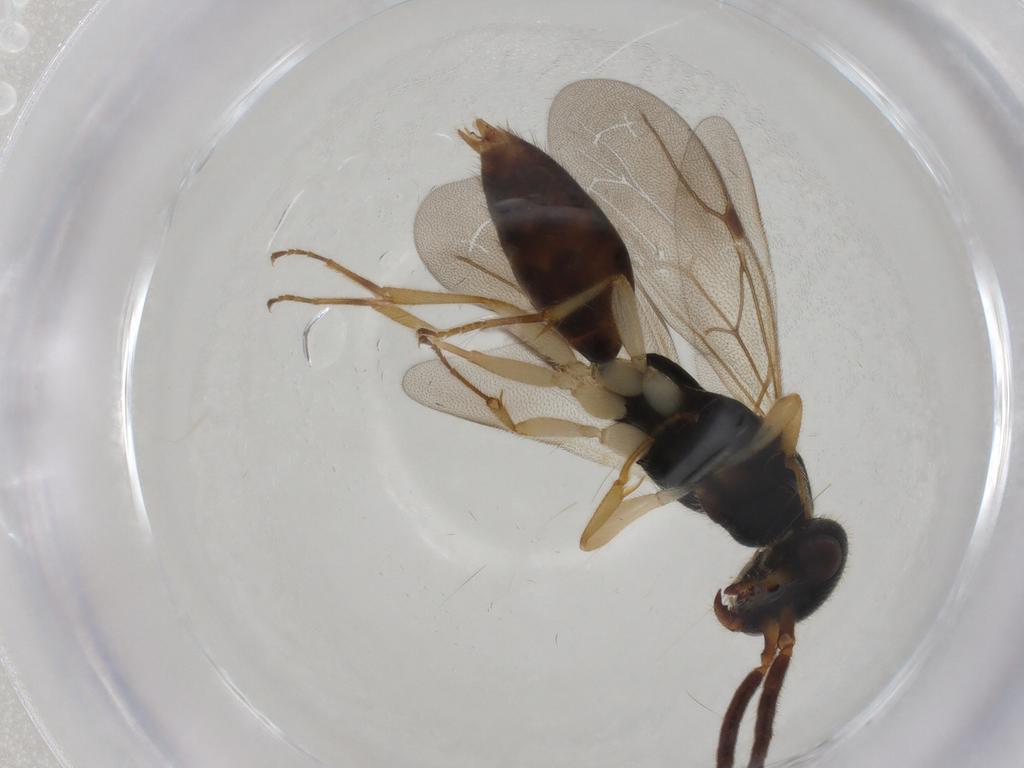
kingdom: Animalia
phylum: Arthropoda
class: Insecta
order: Hymenoptera
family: Bethylidae
